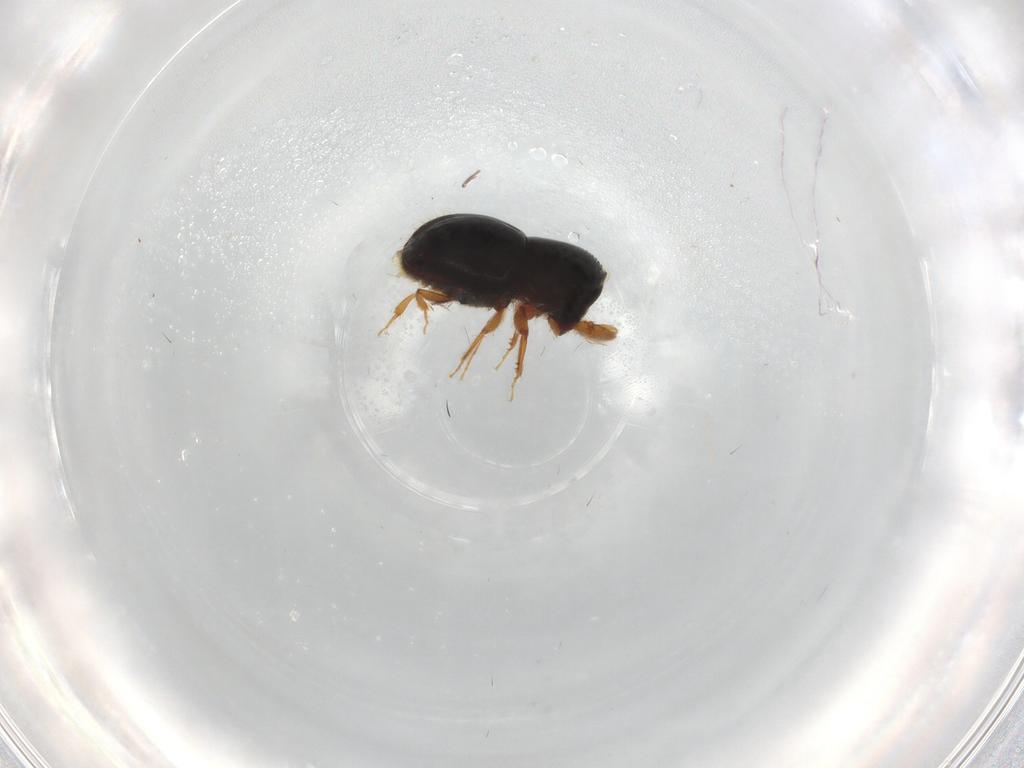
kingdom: Animalia
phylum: Arthropoda
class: Insecta
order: Coleoptera
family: Chrysomelidae
